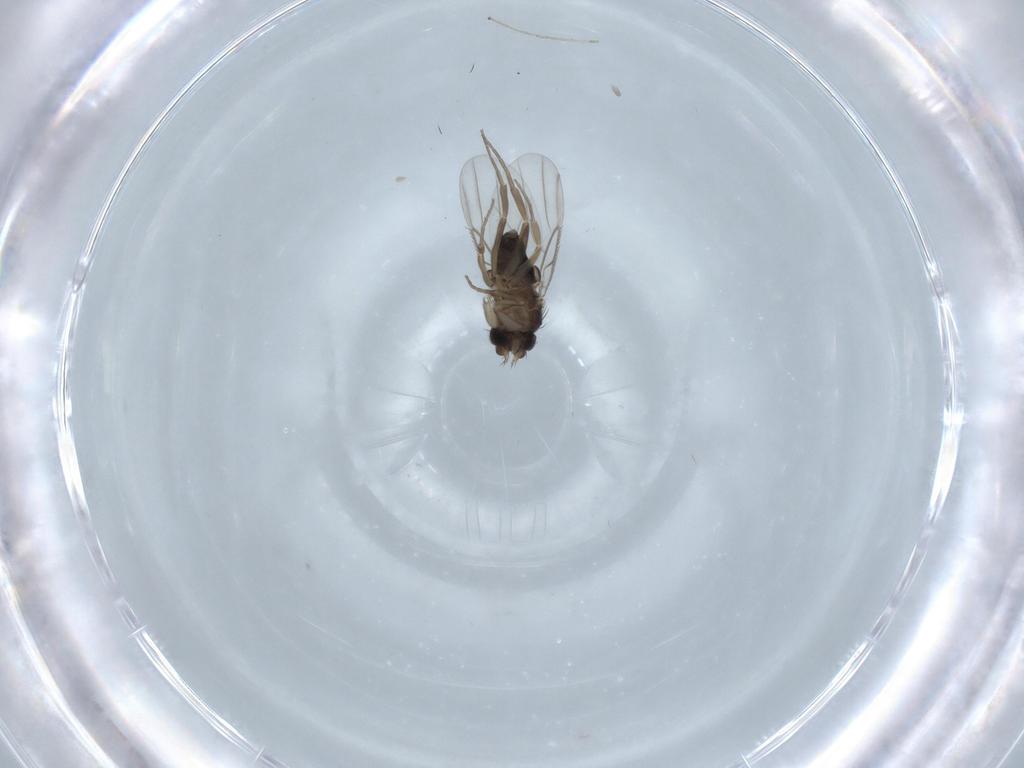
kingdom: Animalia
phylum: Arthropoda
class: Insecta
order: Diptera
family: Phoridae
